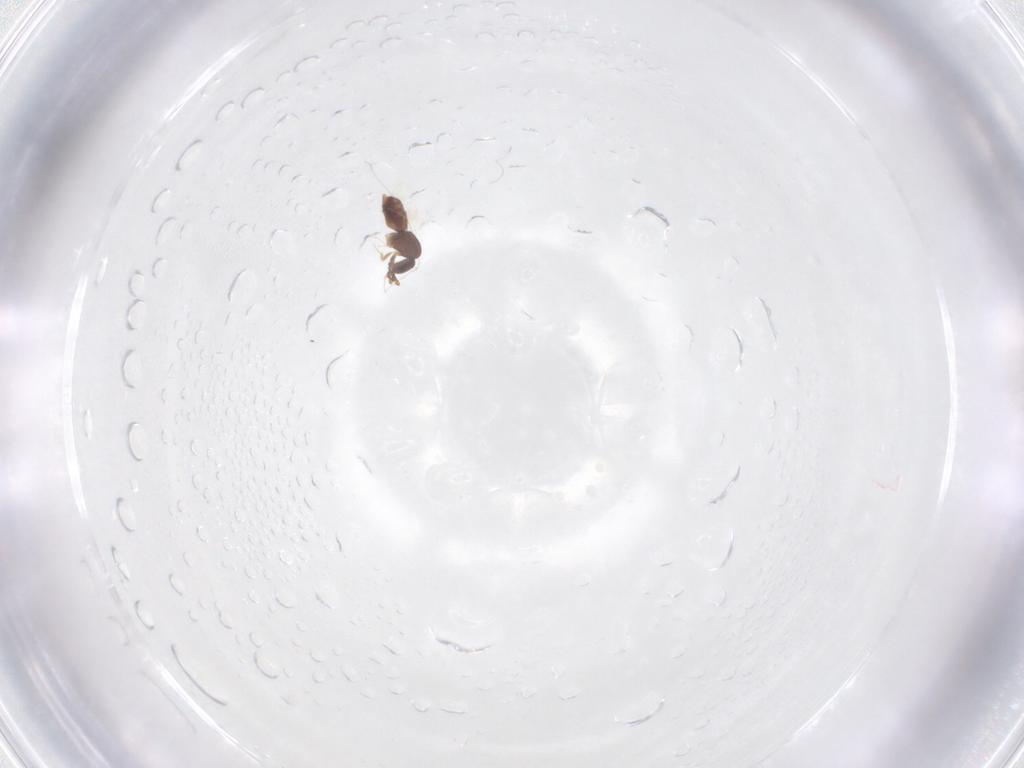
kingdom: Animalia
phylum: Arthropoda
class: Insecta
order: Hymenoptera
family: Encyrtidae
